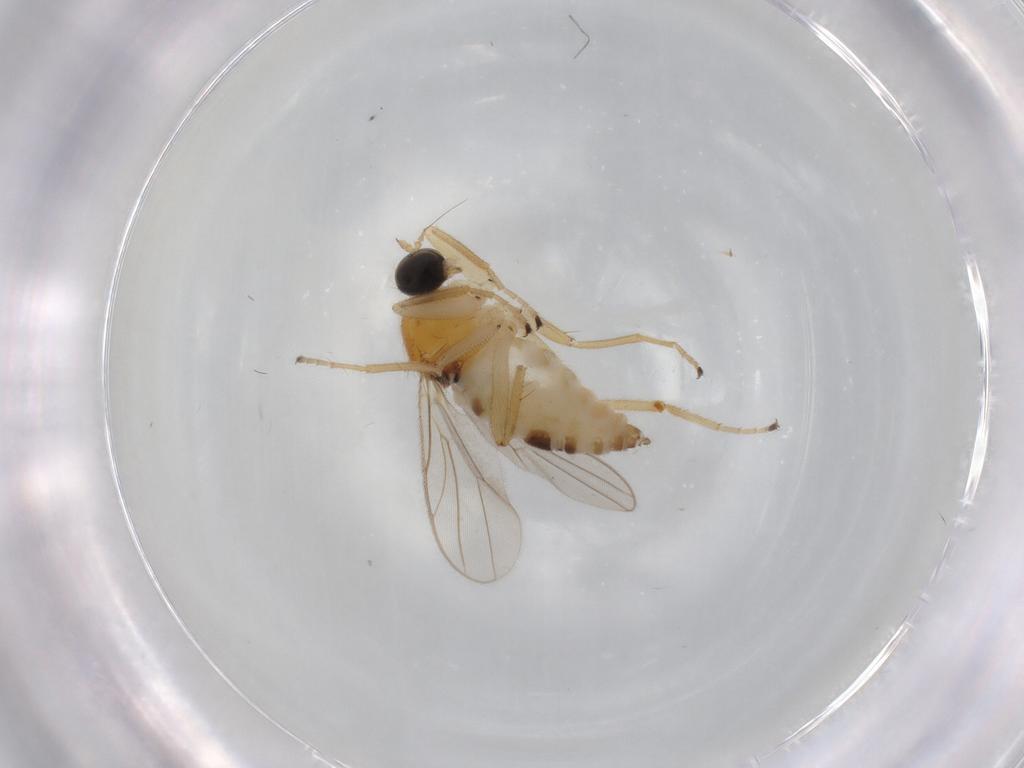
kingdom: Animalia
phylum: Arthropoda
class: Insecta
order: Diptera
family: Hybotidae
